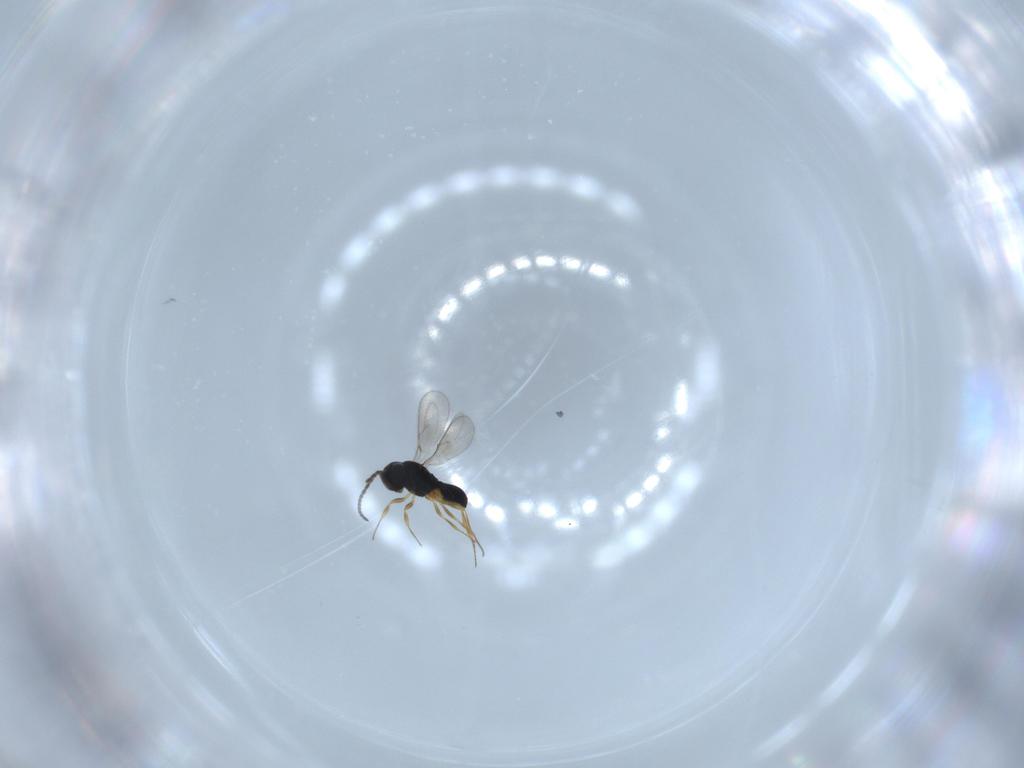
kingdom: Animalia
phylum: Arthropoda
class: Insecta
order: Hymenoptera
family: Scelionidae
